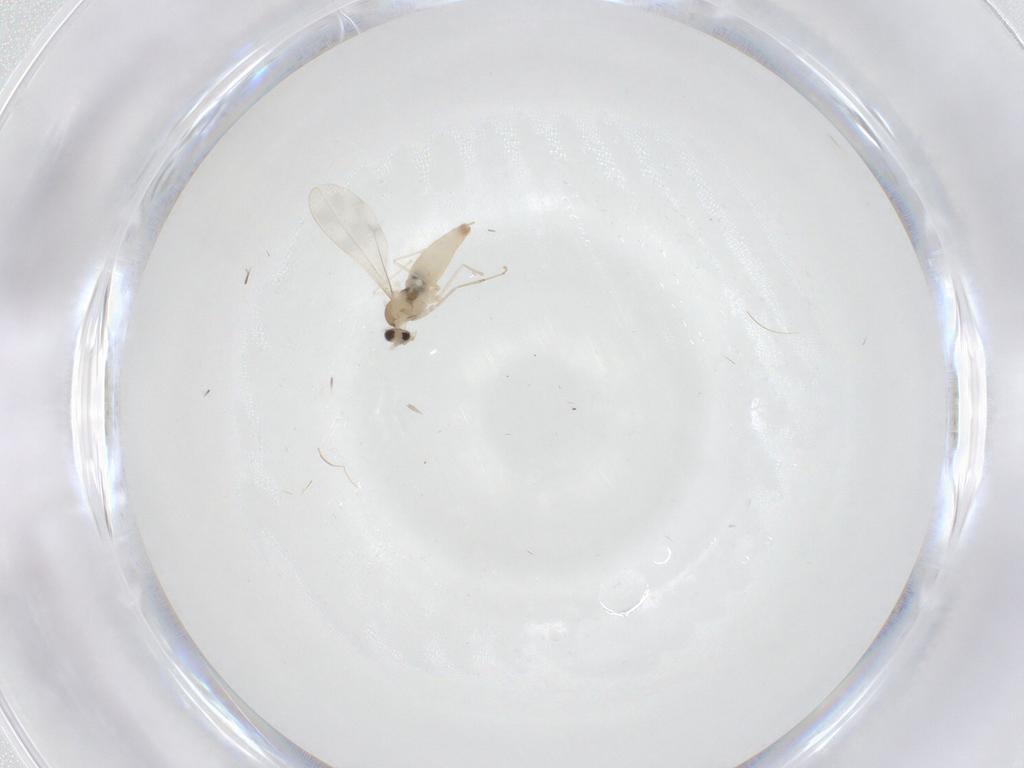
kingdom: Animalia
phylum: Arthropoda
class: Insecta
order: Diptera
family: Cecidomyiidae
